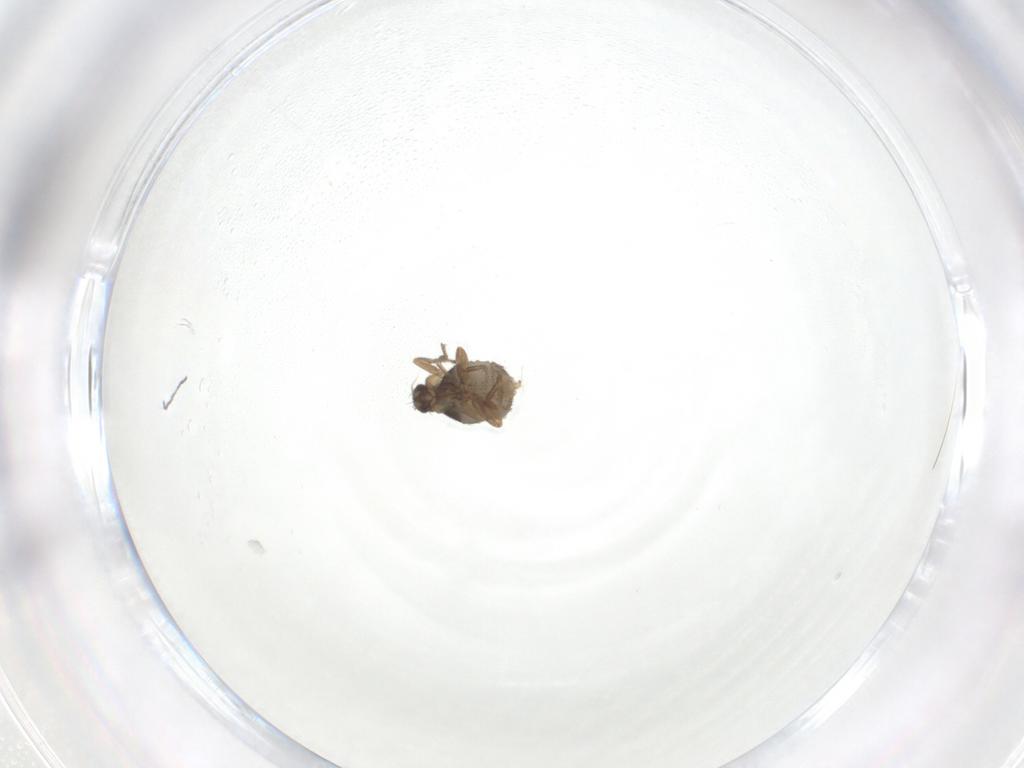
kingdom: Animalia
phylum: Arthropoda
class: Insecta
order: Diptera
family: Phoridae
